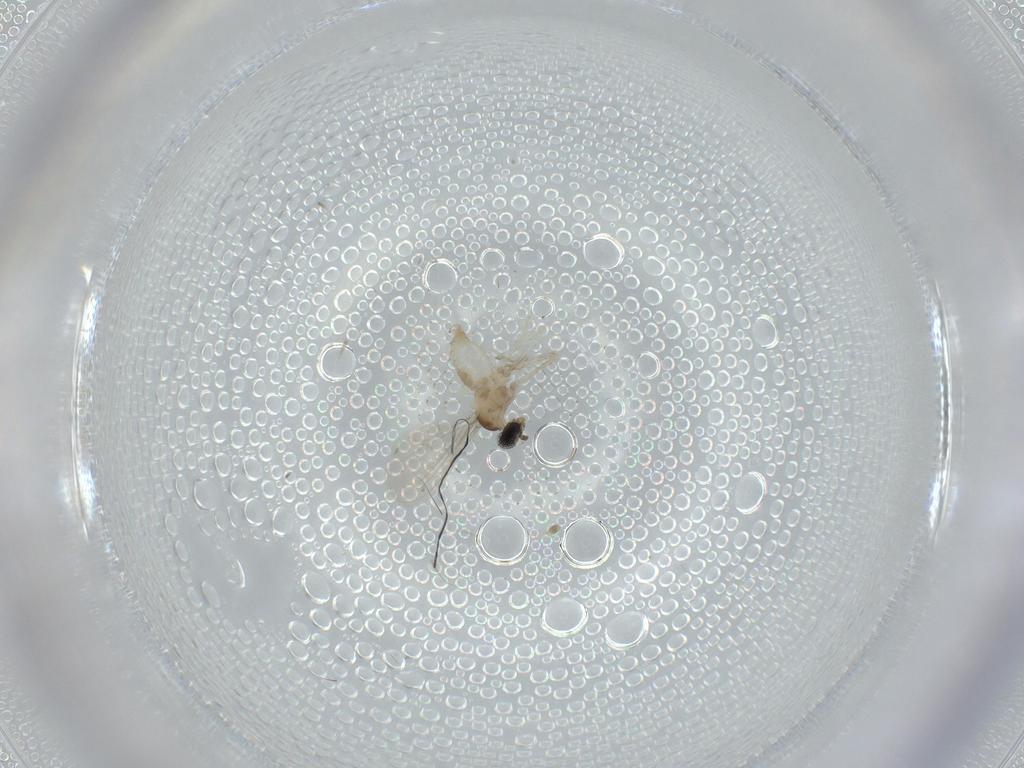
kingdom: Animalia
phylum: Arthropoda
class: Insecta
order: Diptera
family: Cecidomyiidae
